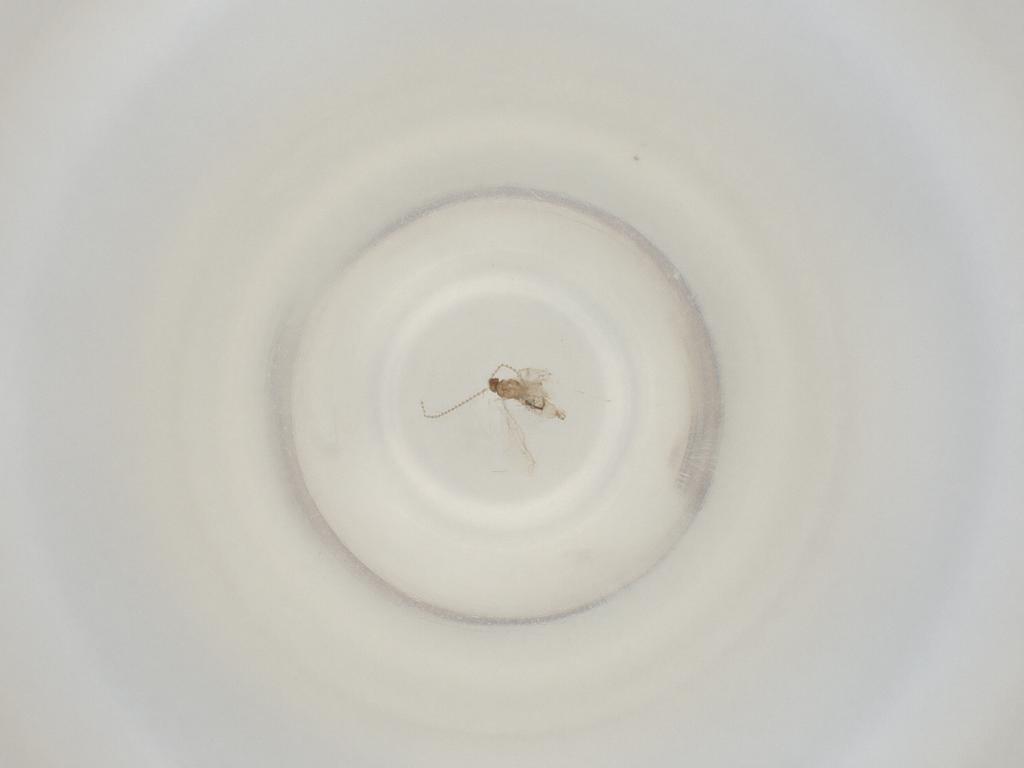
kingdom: Animalia
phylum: Arthropoda
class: Insecta
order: Diptera
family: Cecidomyiidae
